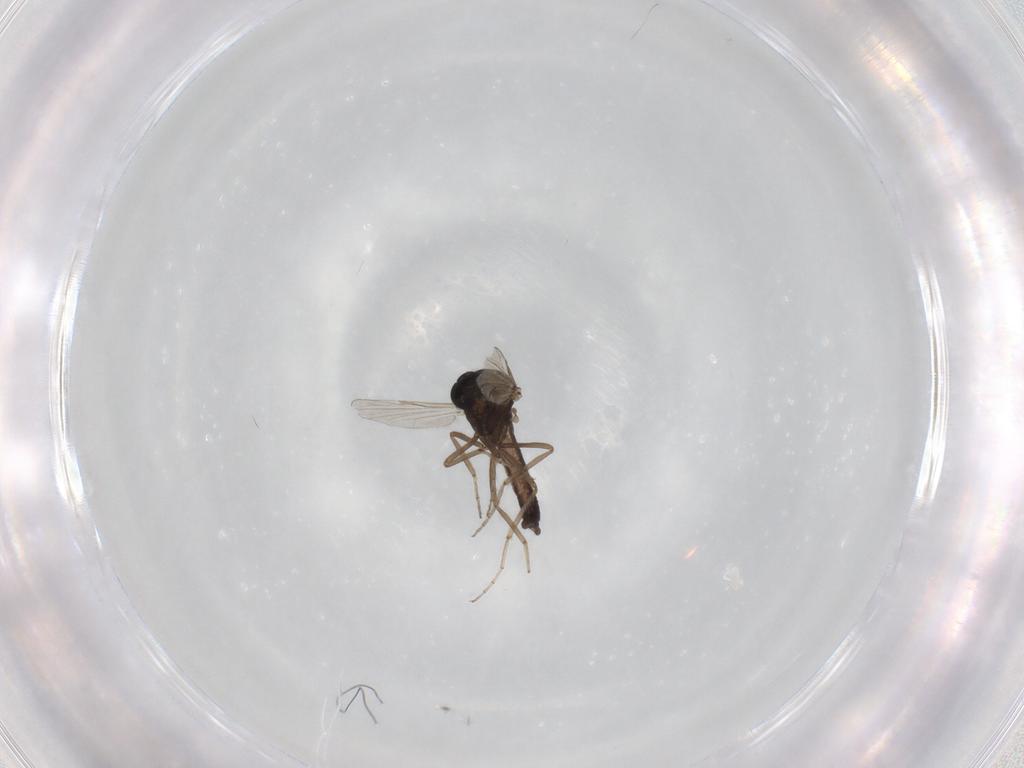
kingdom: Animalia
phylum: Arthropoda
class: Insecta
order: Diptera
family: Ceratopogonidae
